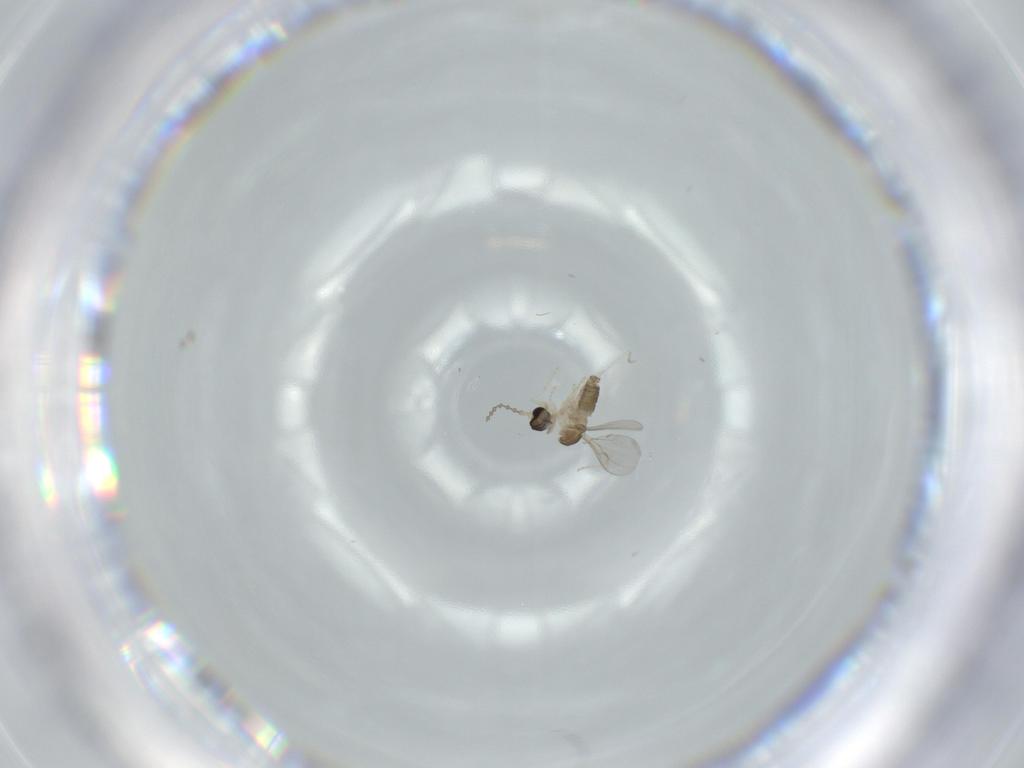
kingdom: Animalia
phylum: Arthropoda
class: Insecta
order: Diptera
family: Cecidomyiidae
